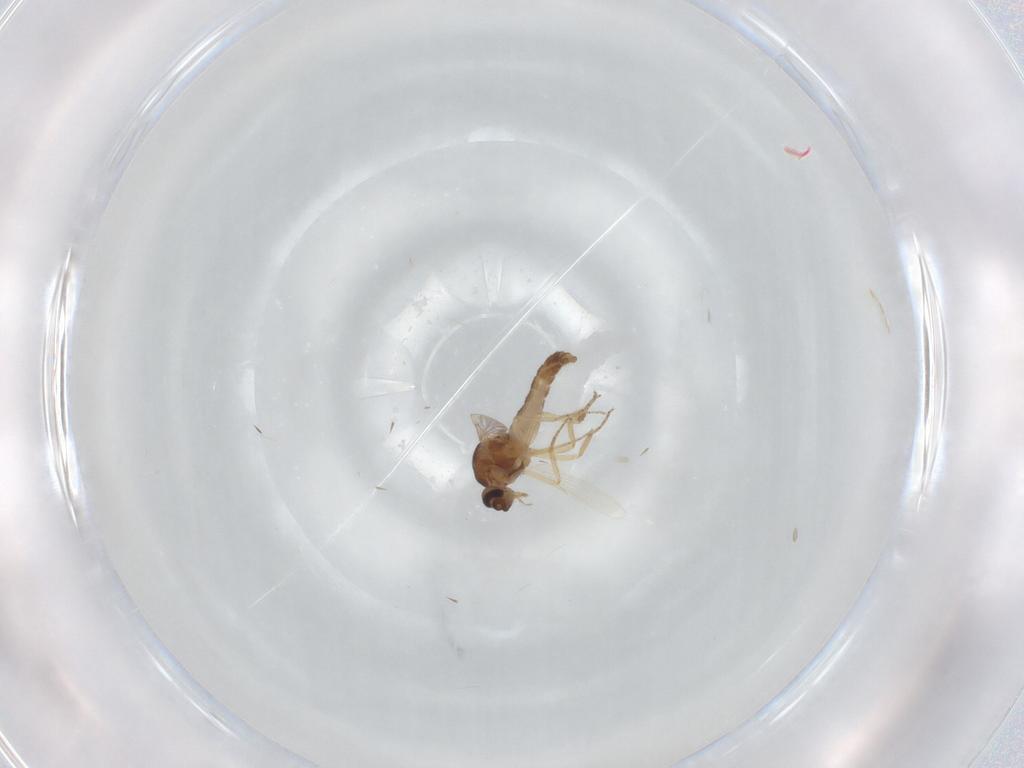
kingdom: Animalia
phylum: Arthropoda
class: Insecta
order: Diptera
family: Ceratopogonidae
